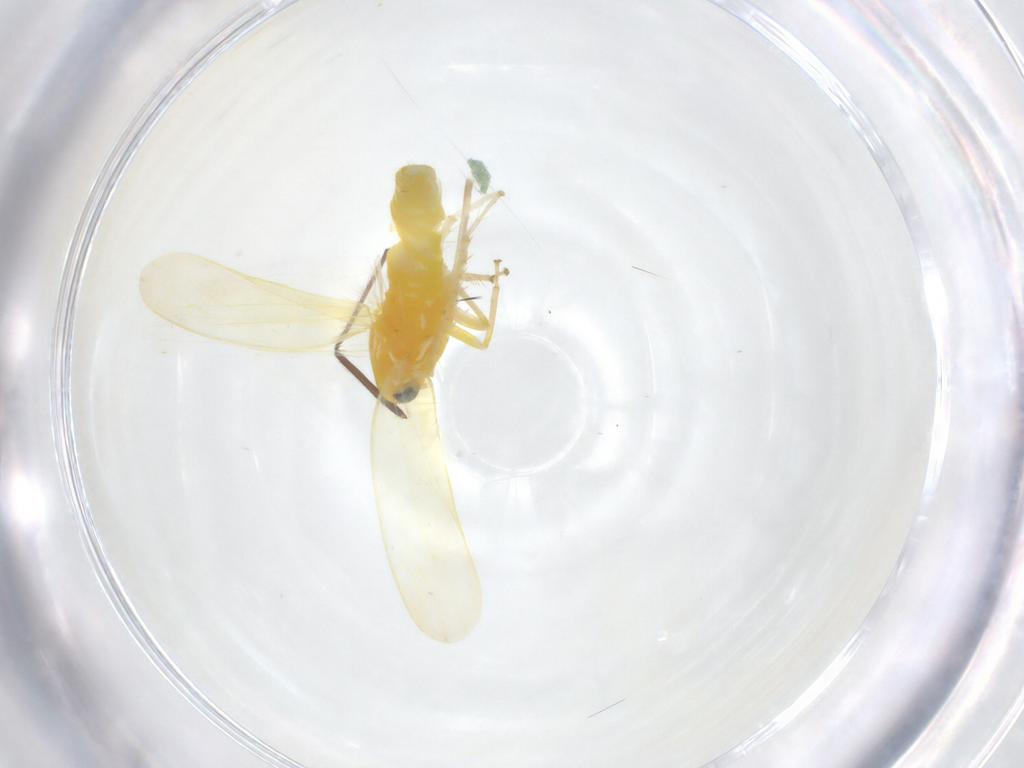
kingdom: Animalia
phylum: Arthropoda
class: Insecta
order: Hemiptera
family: Cicadellidae
